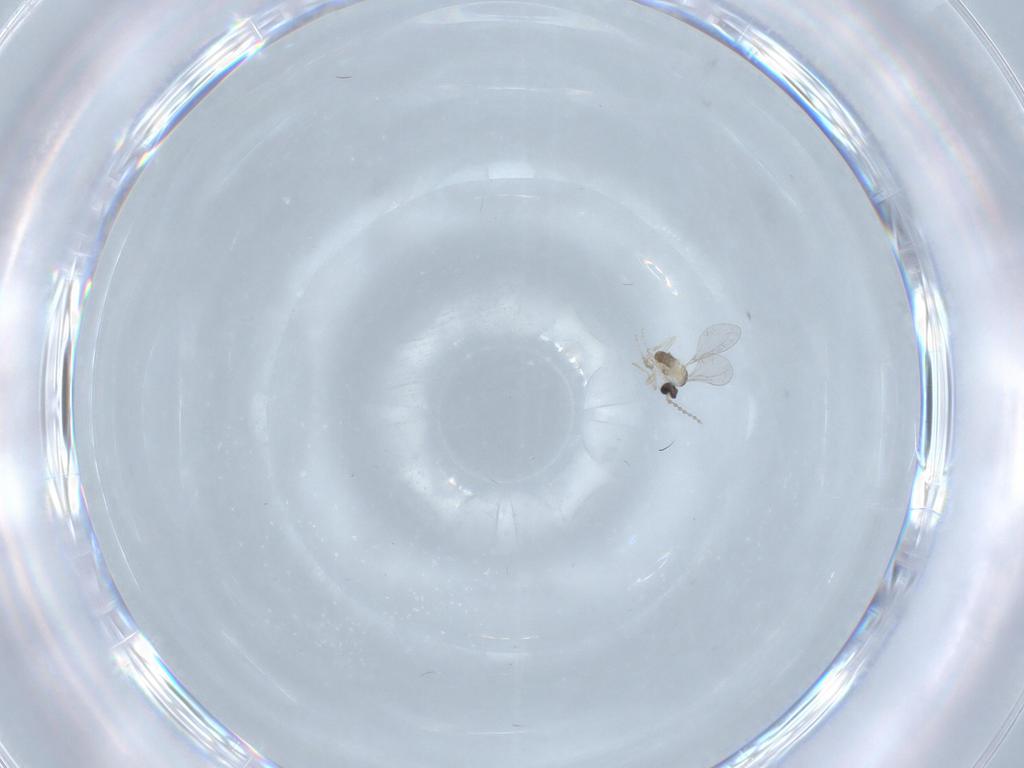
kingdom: Animalia
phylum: Arthropoda
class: Insecta
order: Diptera
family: Cecidomyiidae
